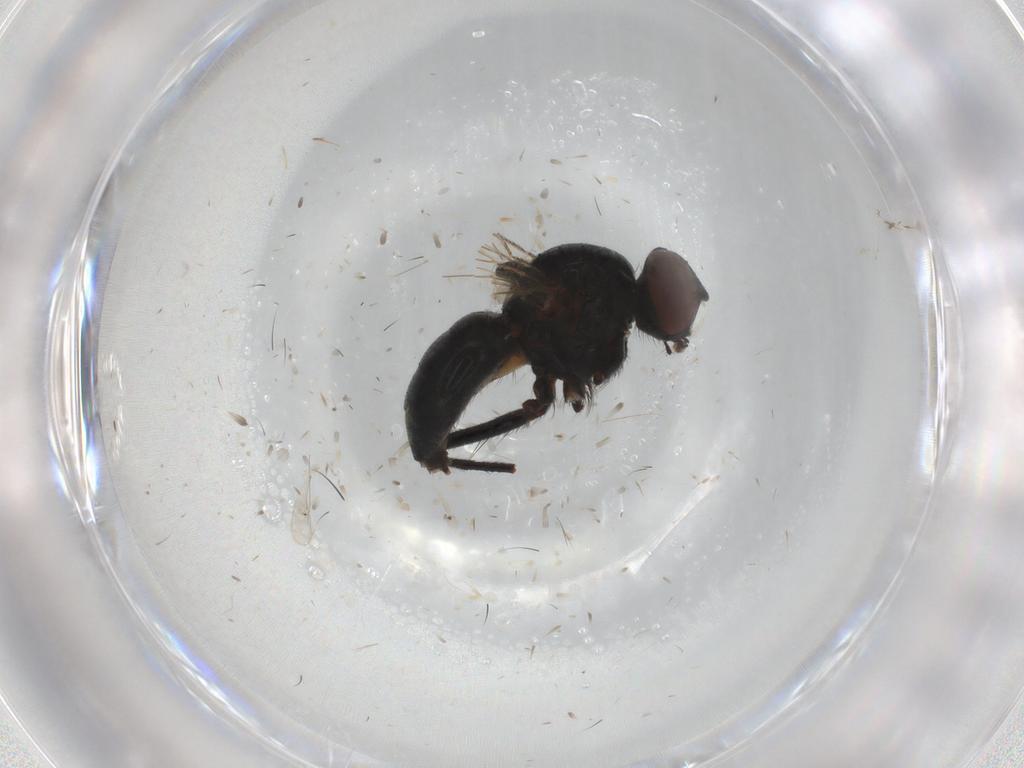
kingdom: Animalia
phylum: Arthropoda
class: Insecta
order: Diptera
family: Muscidae
